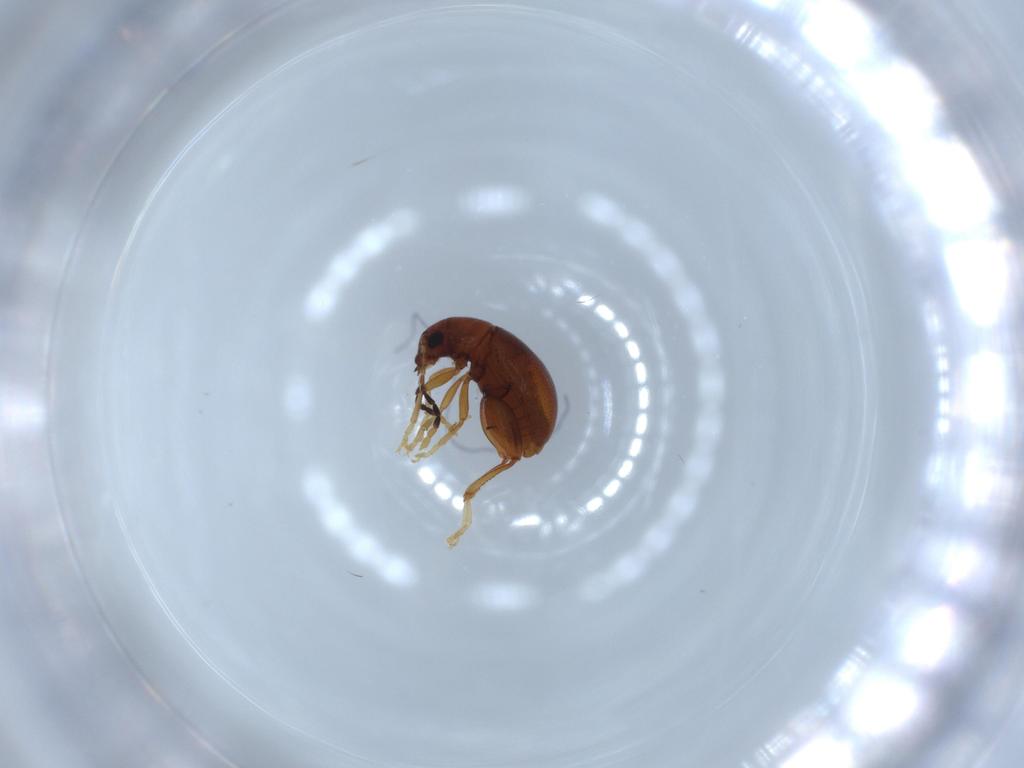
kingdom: Animalia
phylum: Arthropoda
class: Insecta
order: Coleoptera
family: Chrysomelidae
